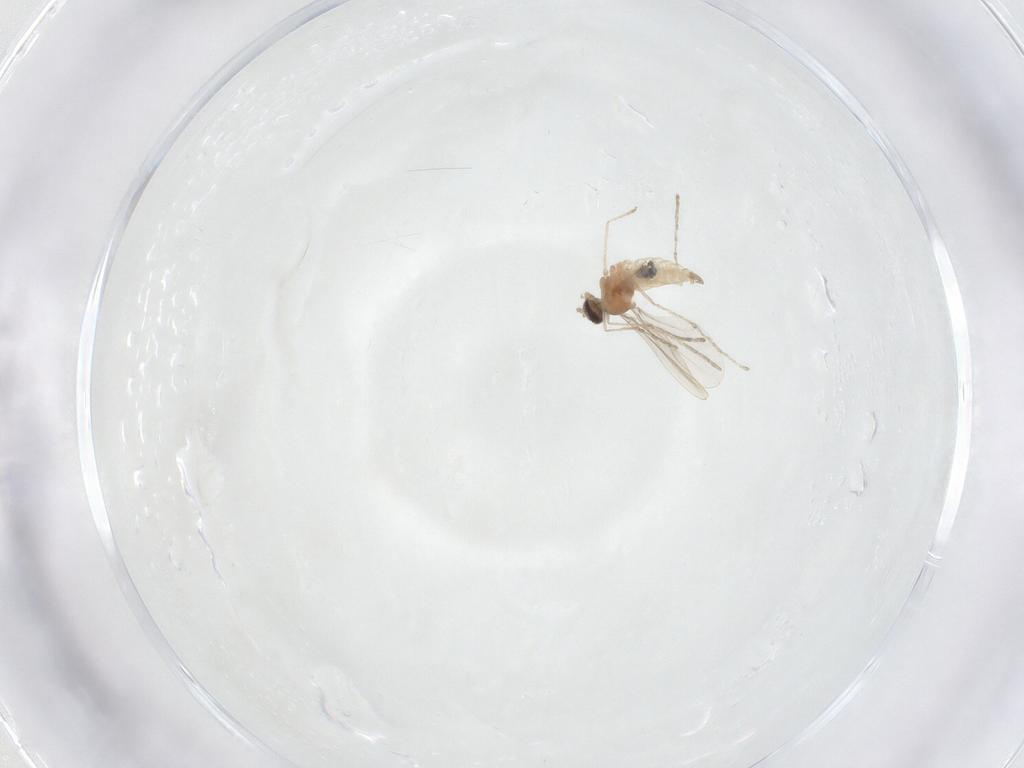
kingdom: Animalia
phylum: Arthropoda
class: Insecta
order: Diptera
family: Cecidomyiidae
